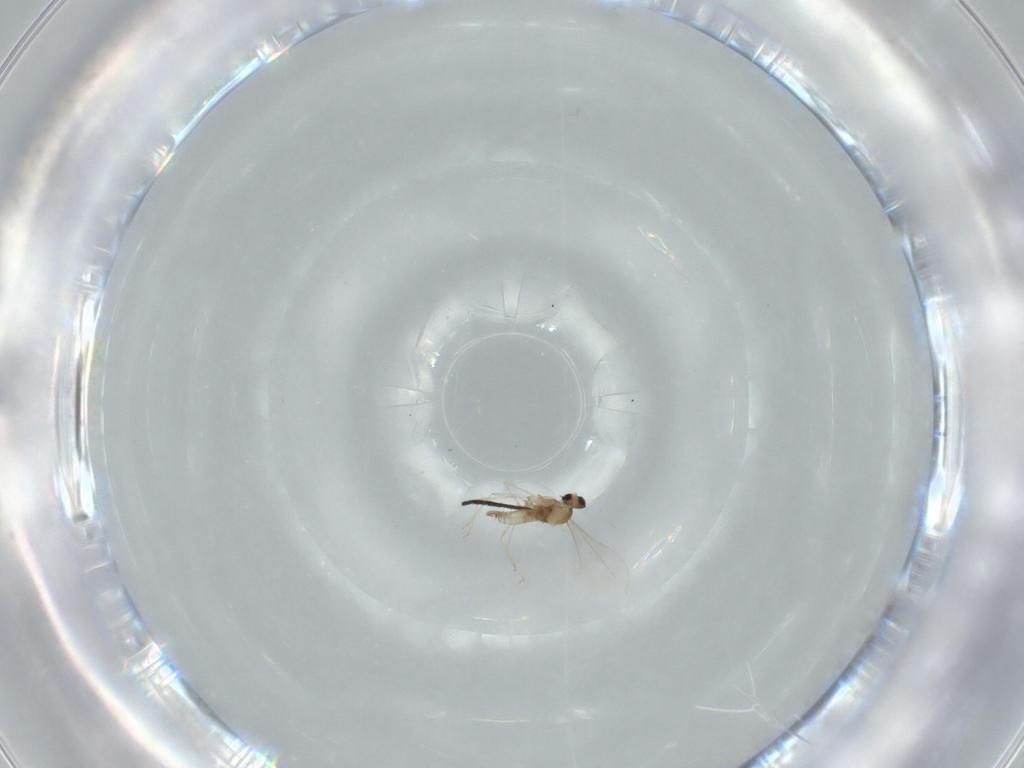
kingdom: Animalia
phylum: Arthropoda
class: Insecta
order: Diptera
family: Cecidomyiidae
